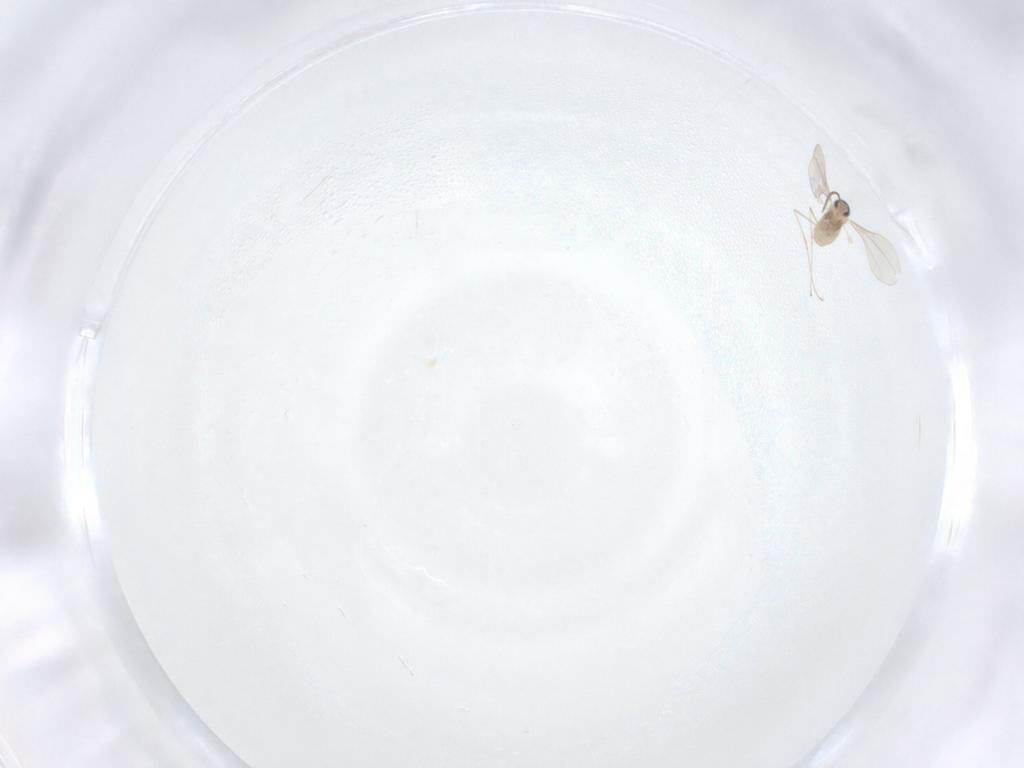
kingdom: Animalia
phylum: Arthropoda
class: Insecta
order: Diptera
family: Cecidomyiidae
